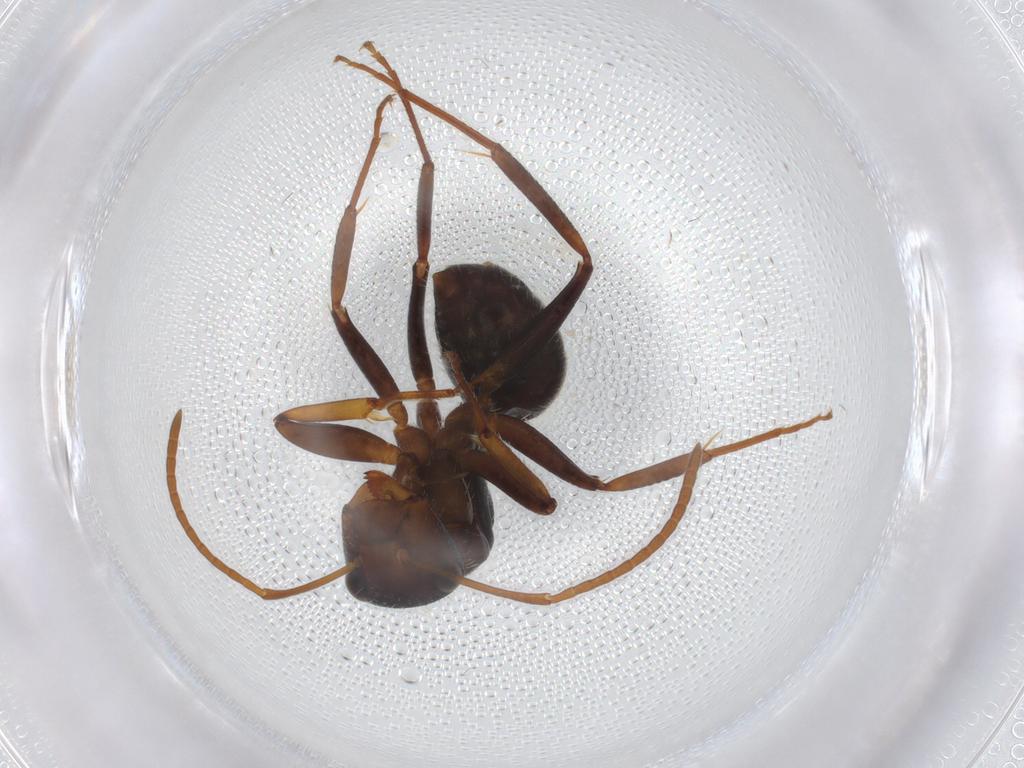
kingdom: Animalia
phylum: Arthropoda
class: Insecta
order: Hymenoptera
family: Formicidae
